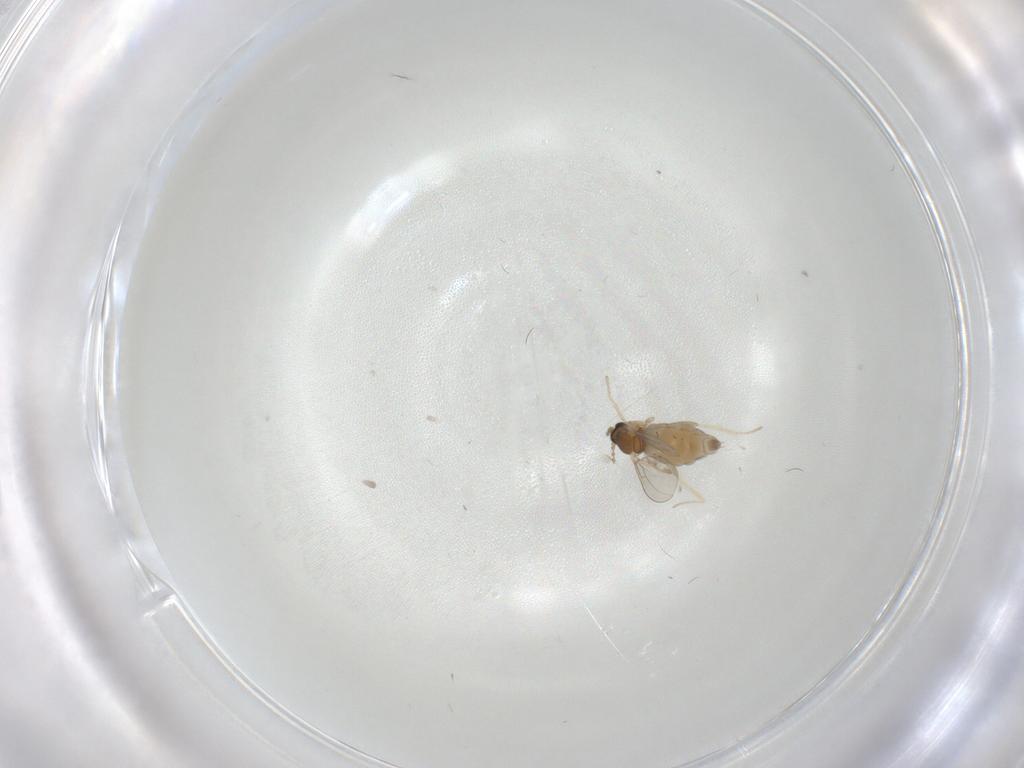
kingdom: Animalia
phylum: Arthropoda
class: Insecta
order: Diptera
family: Cecidomyiidae
